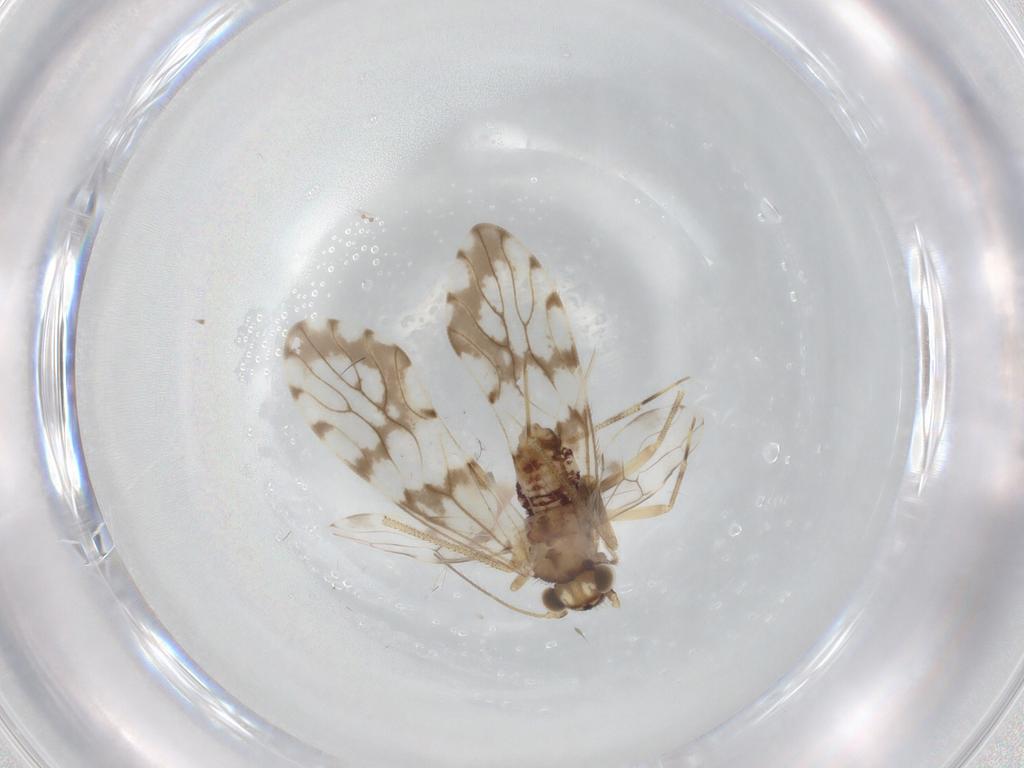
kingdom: Animalia
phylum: Arthropoda
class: Insecta
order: Psocodea
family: Epipsocidae
